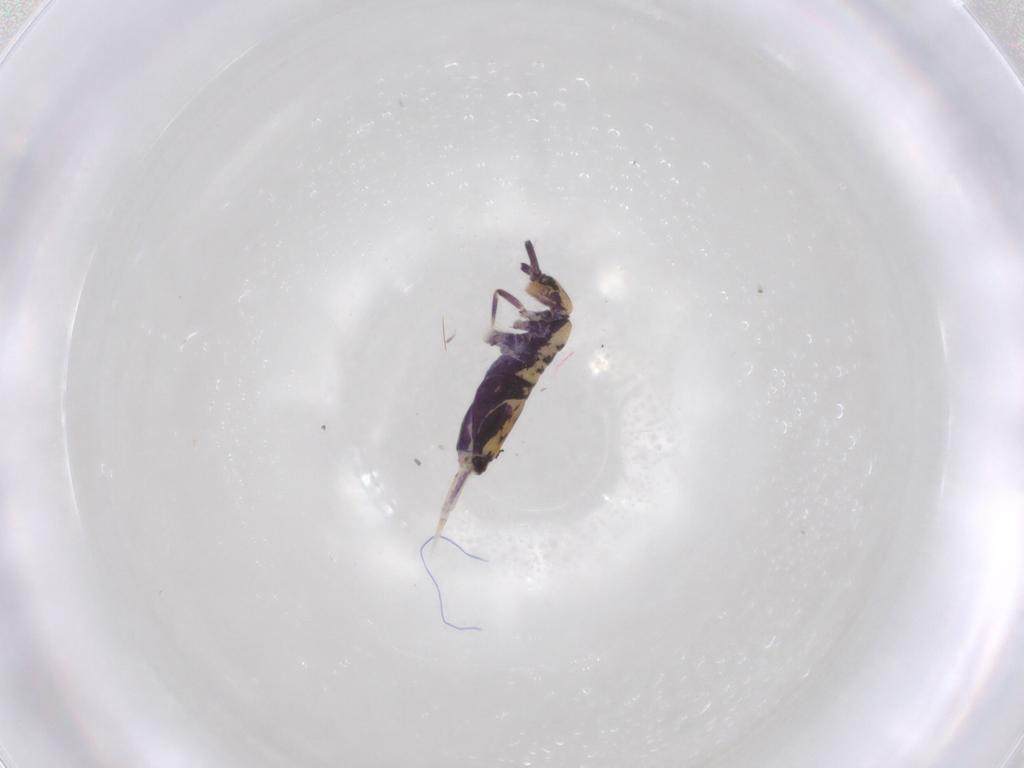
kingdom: Animalia
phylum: Arthropoda
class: Collembola
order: Entomobryomorpha
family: Entomobryidae
